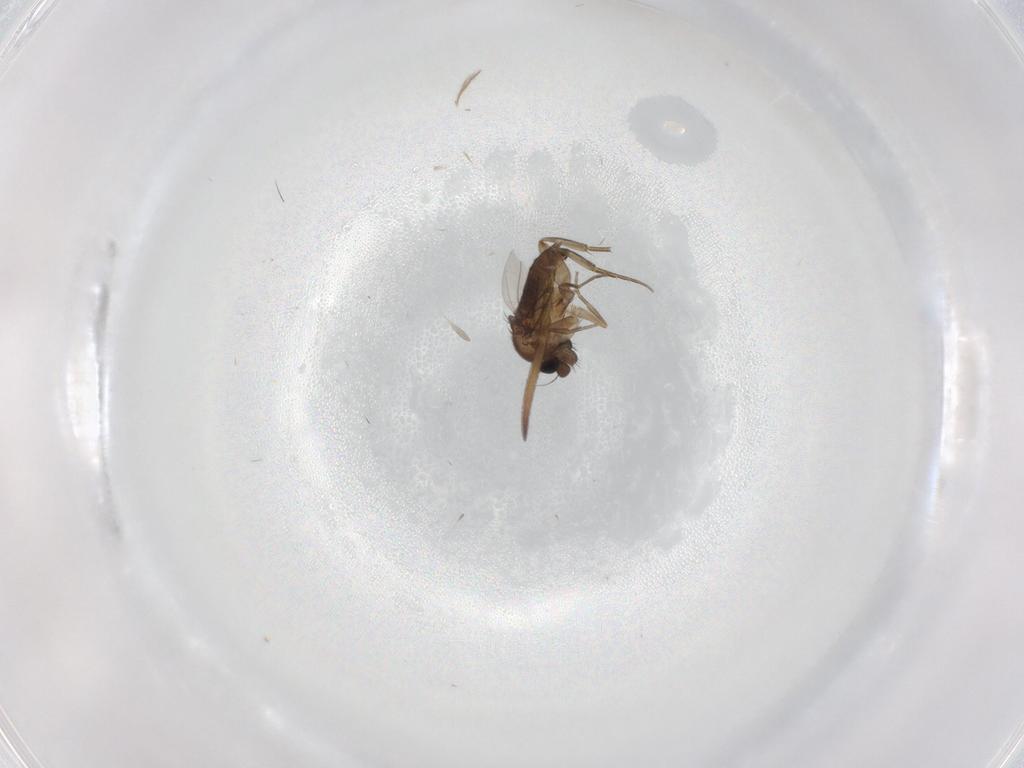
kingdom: Animalia
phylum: Arthropoda
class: Insecta
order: Diptera
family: Phoridae
